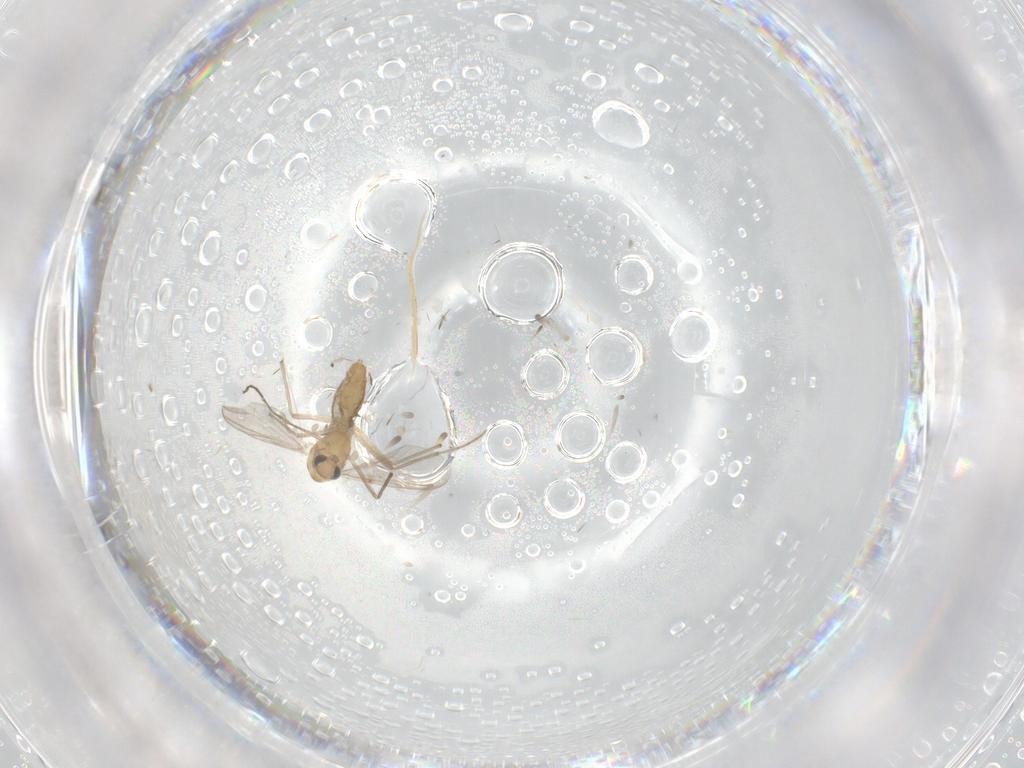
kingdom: Animalia
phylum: Arthropoda
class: Insecta
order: Diptera
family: Chironomidae
